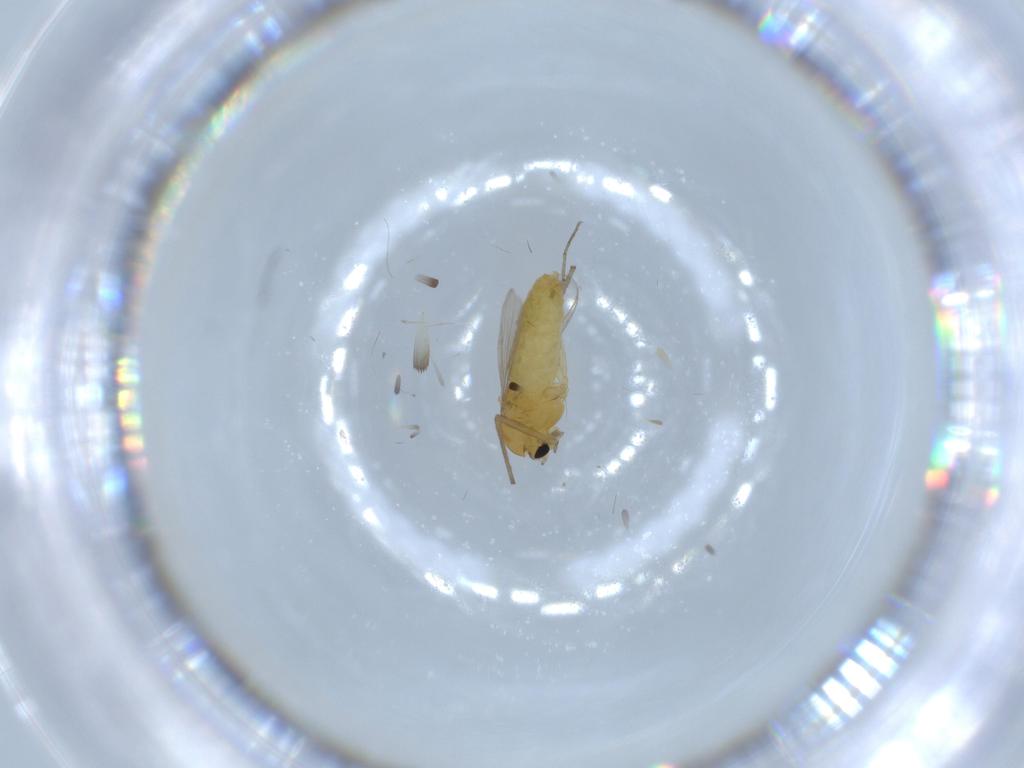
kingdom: Animalia
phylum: Arthropoda
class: Insecta
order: Diptera
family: Chironomidae
